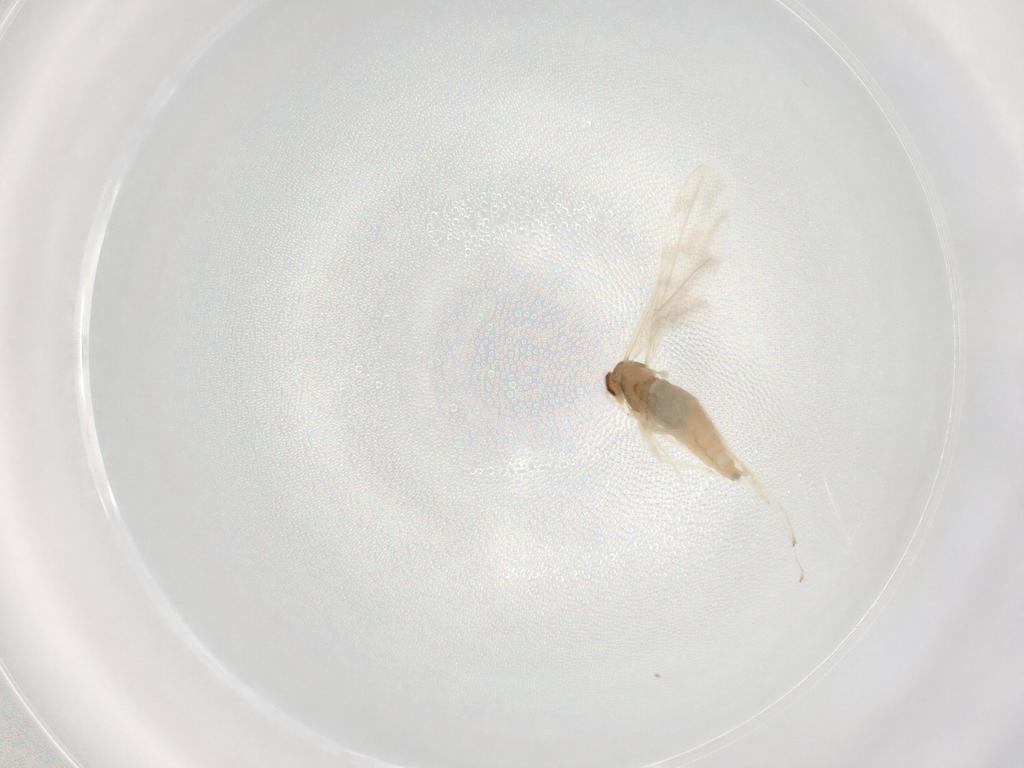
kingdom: Animalia
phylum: Arthropoda
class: Insecta
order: Diptera
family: Cecidomyiidae
